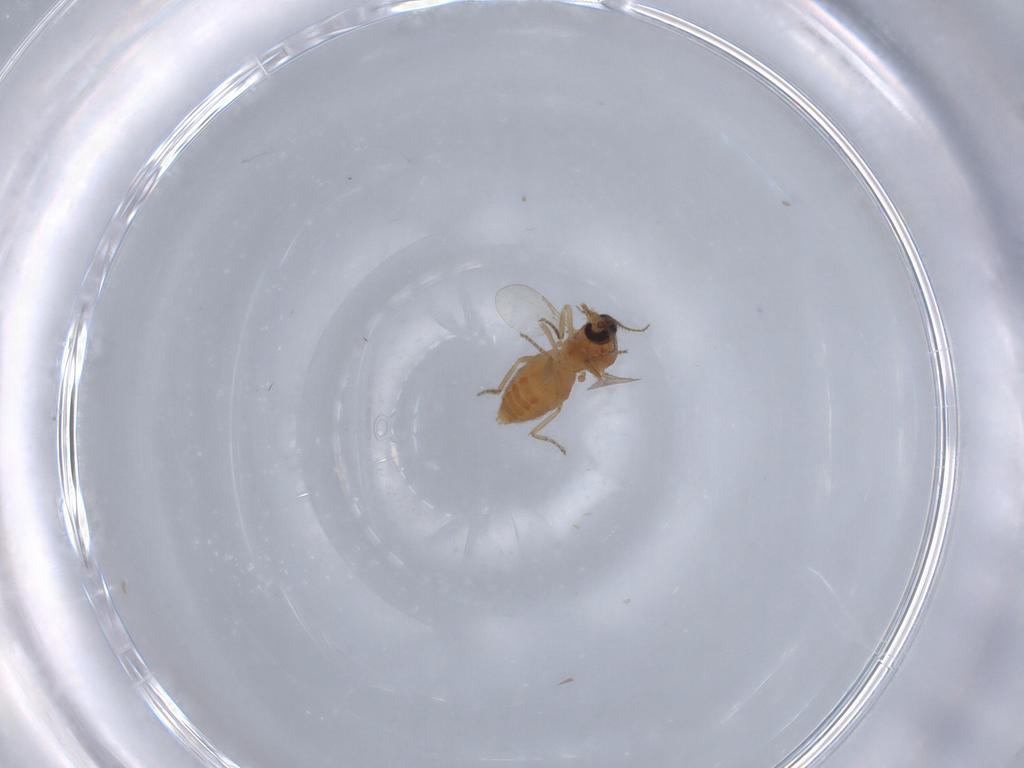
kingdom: Animalia
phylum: Arthropoda
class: Insecta
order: Diptera
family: Ceratopogonidae
